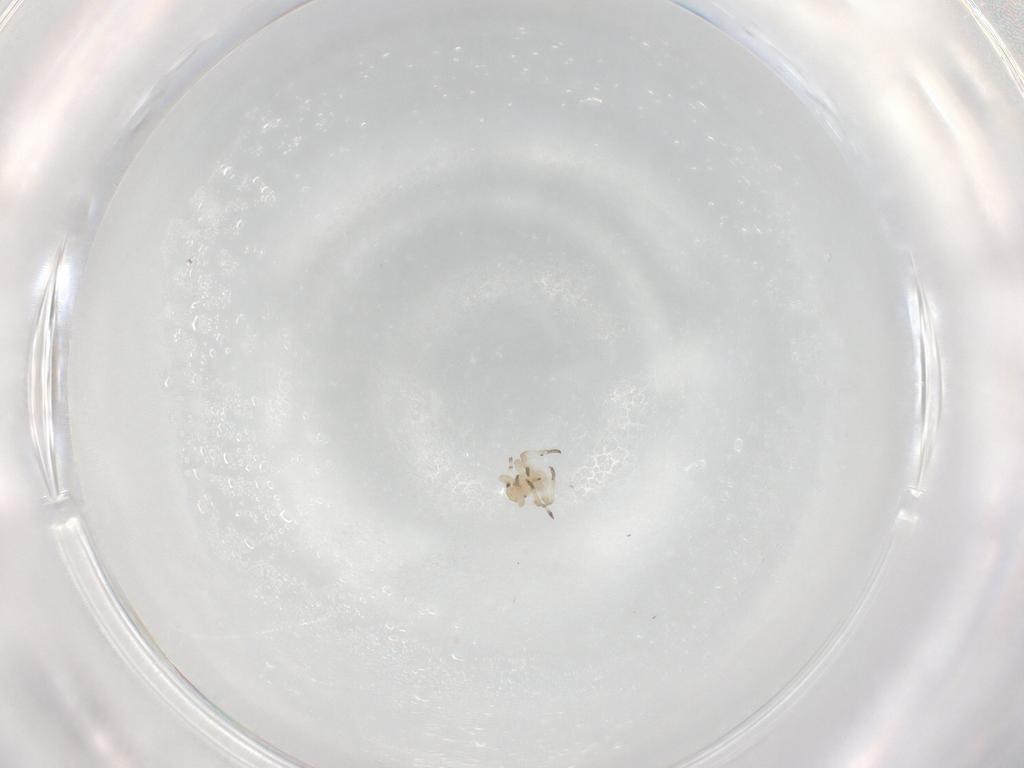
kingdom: Animalia
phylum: Arthropoda
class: Insecta
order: Hemiptera
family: Aphididae
